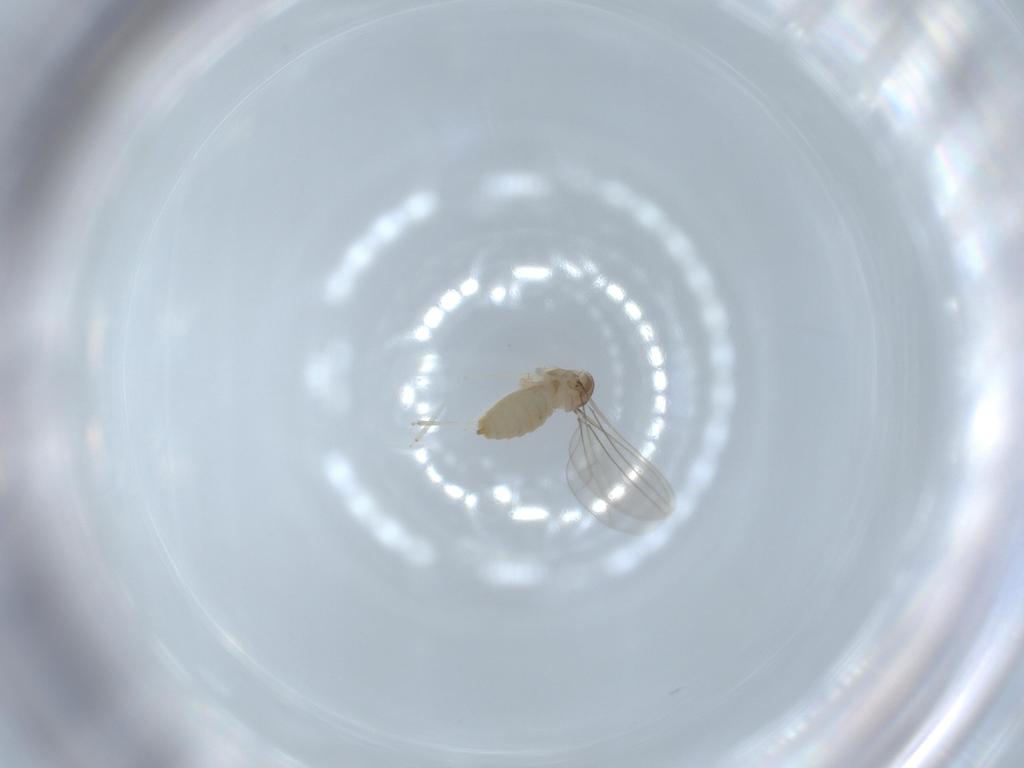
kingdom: Animalia
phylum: Arthropoda
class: Insecta
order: Diptera
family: Cecidomyiidae
